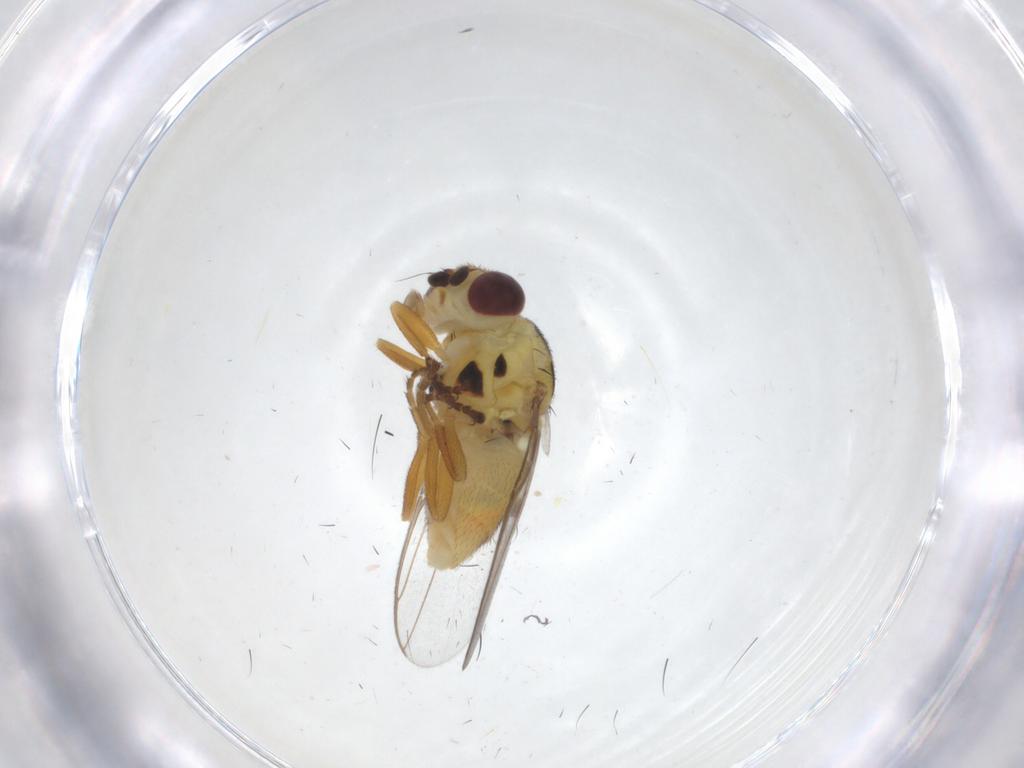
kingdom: Animalia
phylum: Arthropoda
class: Insecta
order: Diptera
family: Chloropidae
